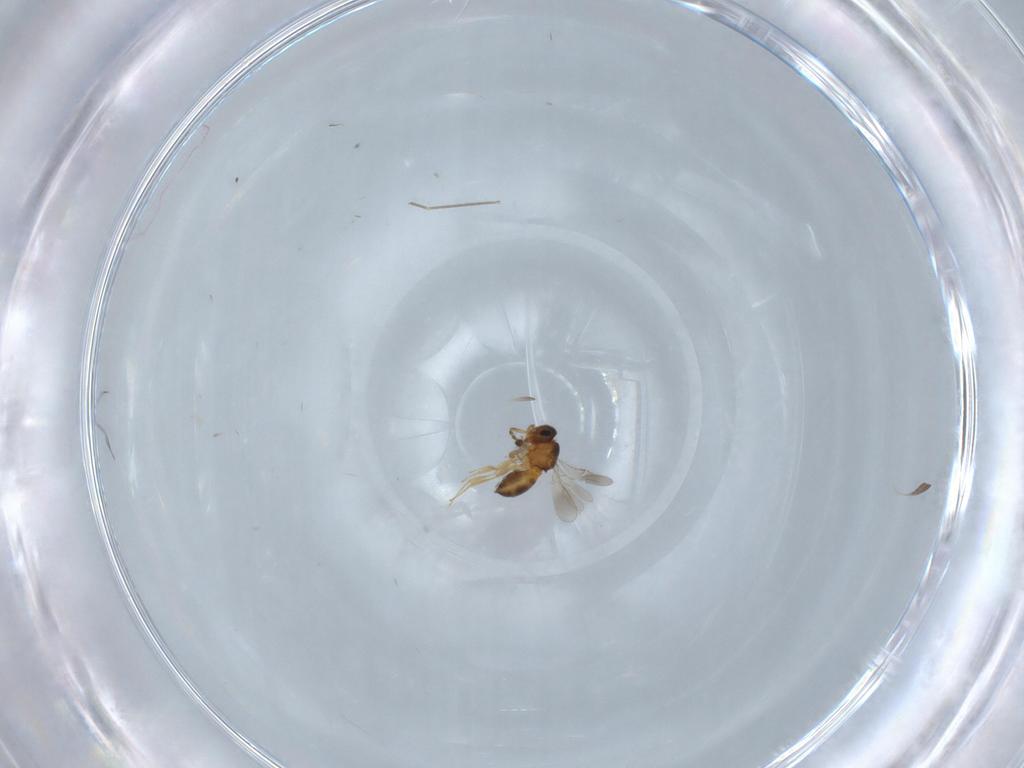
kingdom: Animalia
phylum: Arthropoda
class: Insecta
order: Hymenoptera
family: Scelionidae
